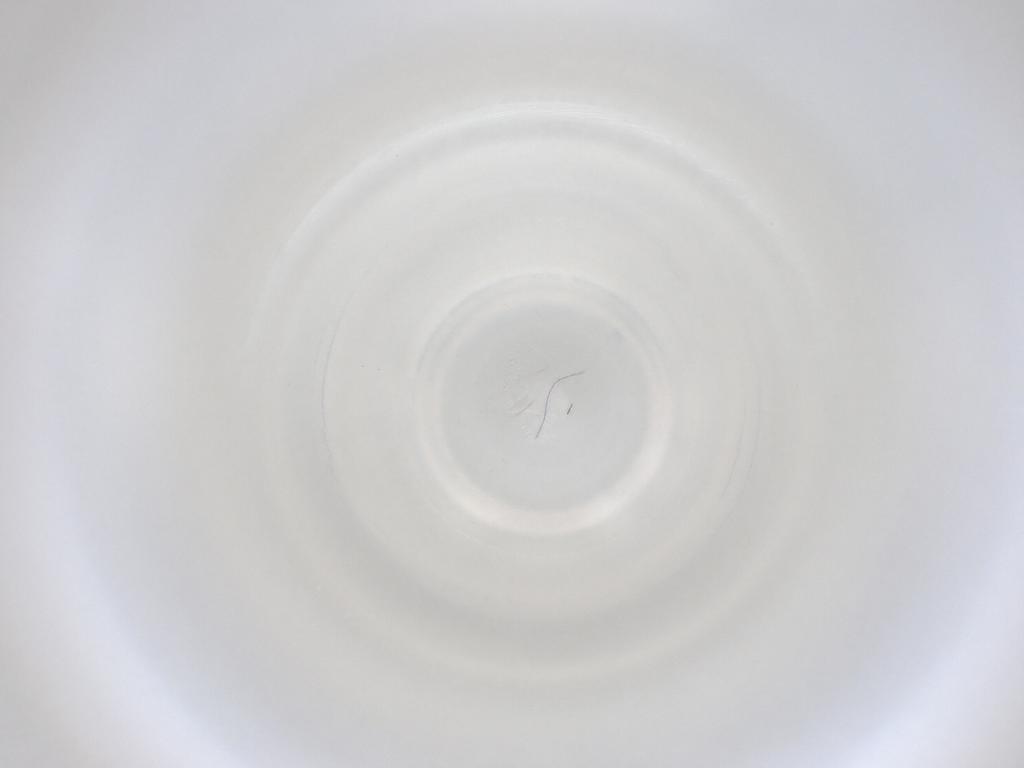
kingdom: Animalia
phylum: Arthropoda
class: Insecta
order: Diptera
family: Cecidomyiidae
